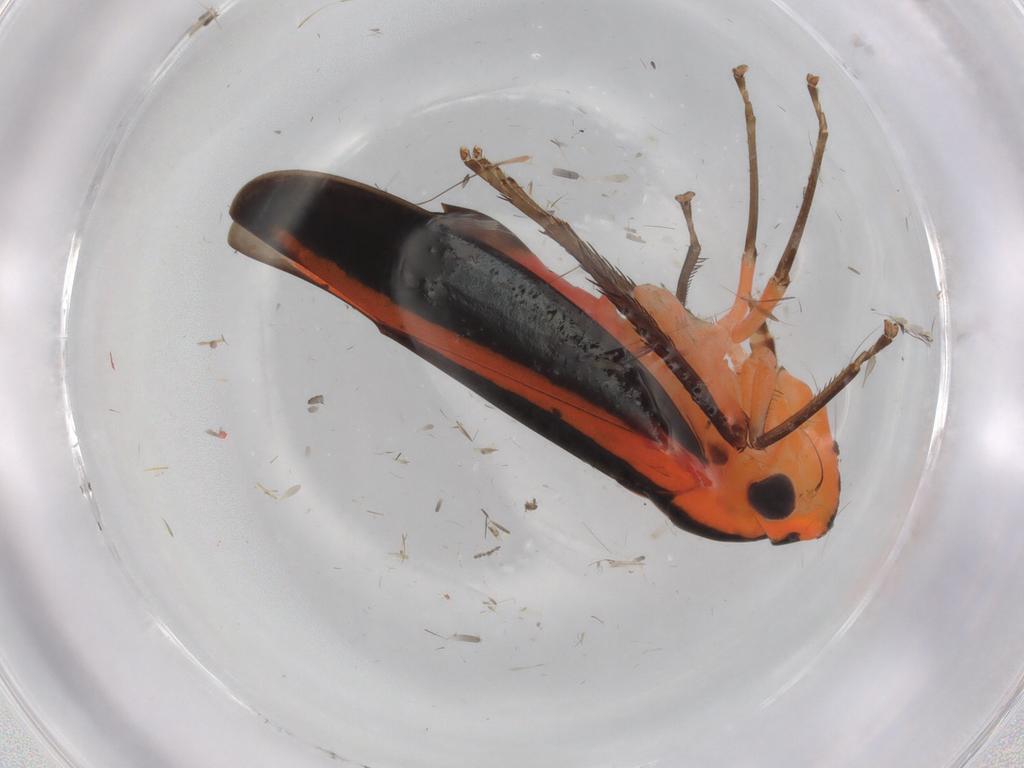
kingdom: Animalia
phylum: Arthropoda
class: Insecta
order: Hemiptera
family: Cicadellidae
